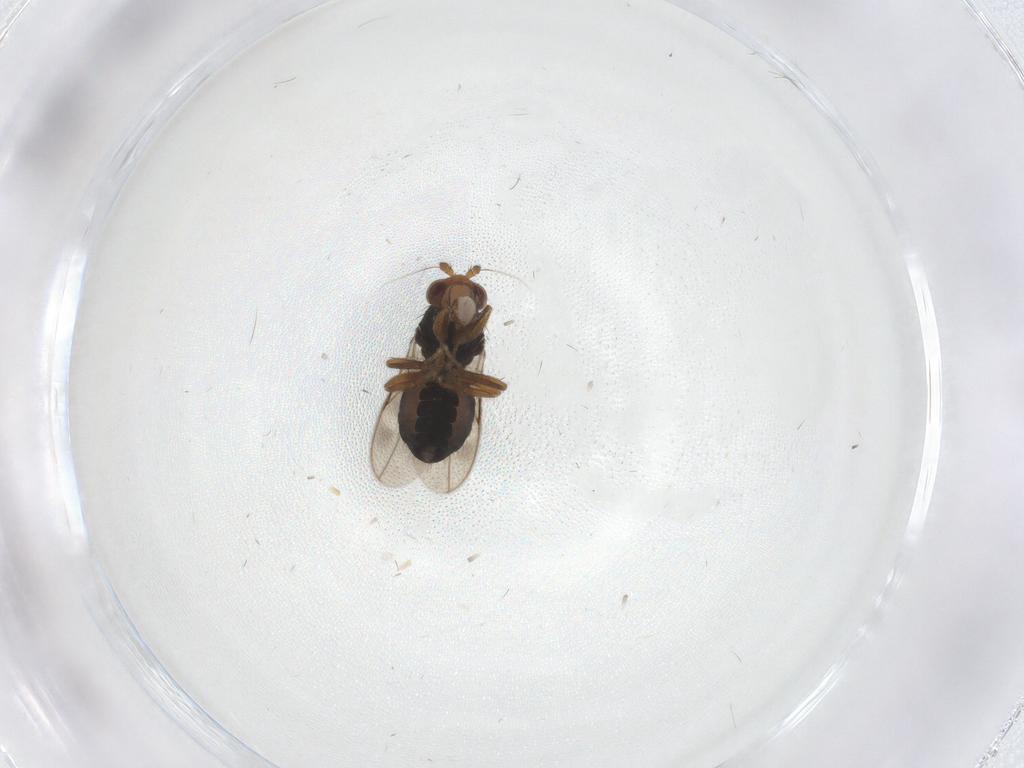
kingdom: Animalia
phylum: Arthropoda
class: Insecta
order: Diptera
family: Sphaeroceridae
